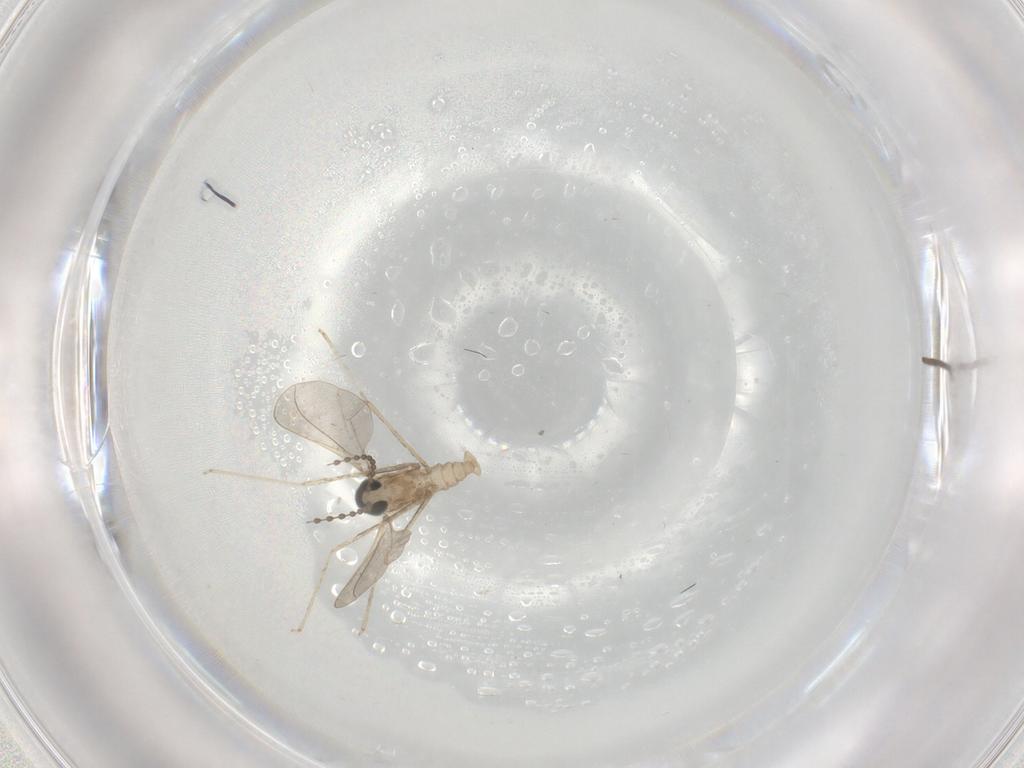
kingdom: Animalia
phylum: Arthropoda
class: Insecta
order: Diptera
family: Cecidomyiidae
